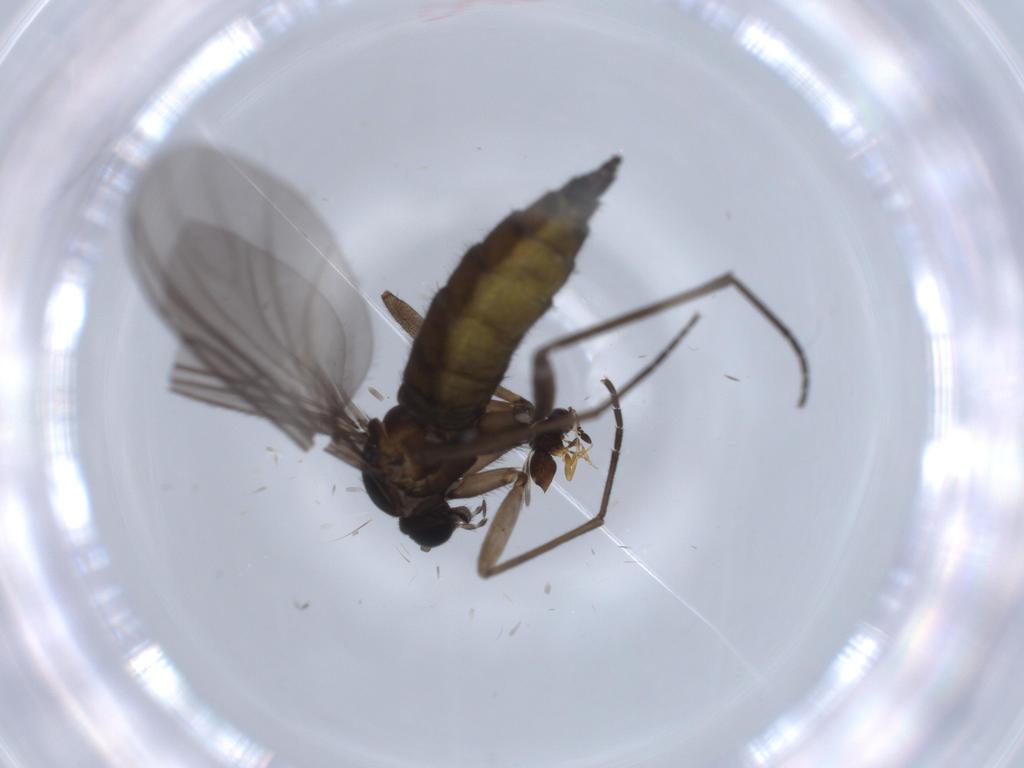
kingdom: Animalia
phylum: Arthropoda
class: Insecta
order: Diptera
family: Sciaridae
